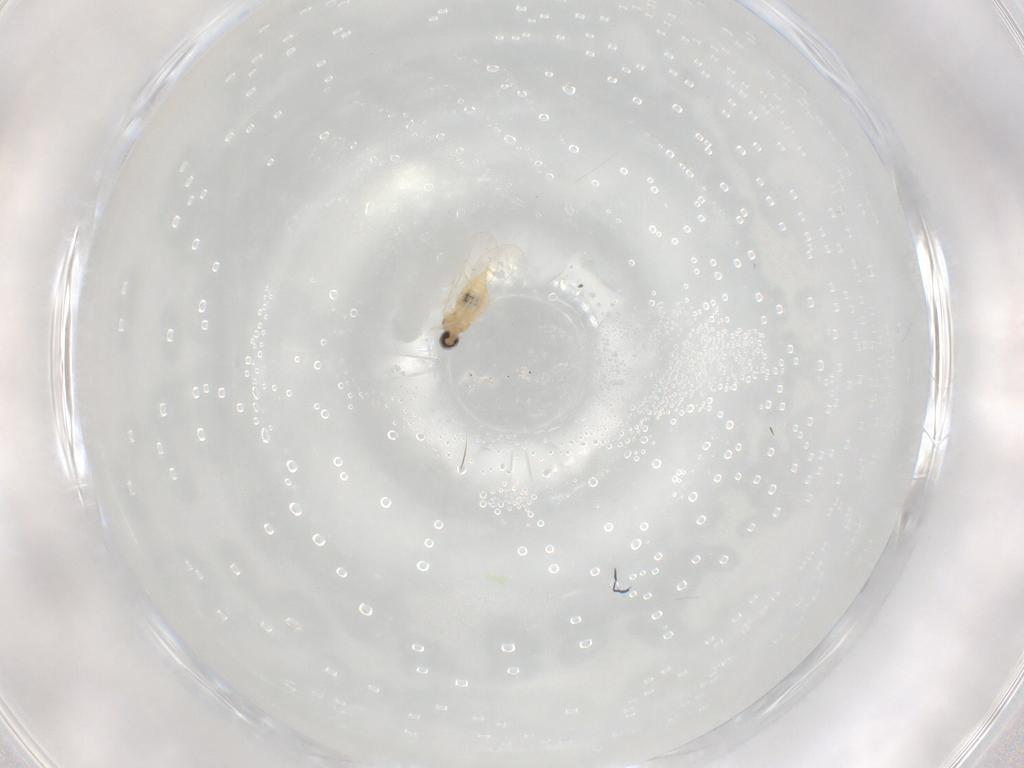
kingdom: Animalia
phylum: Arthropoda
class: Insecta
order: Diptera
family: Cecidomyiidae
